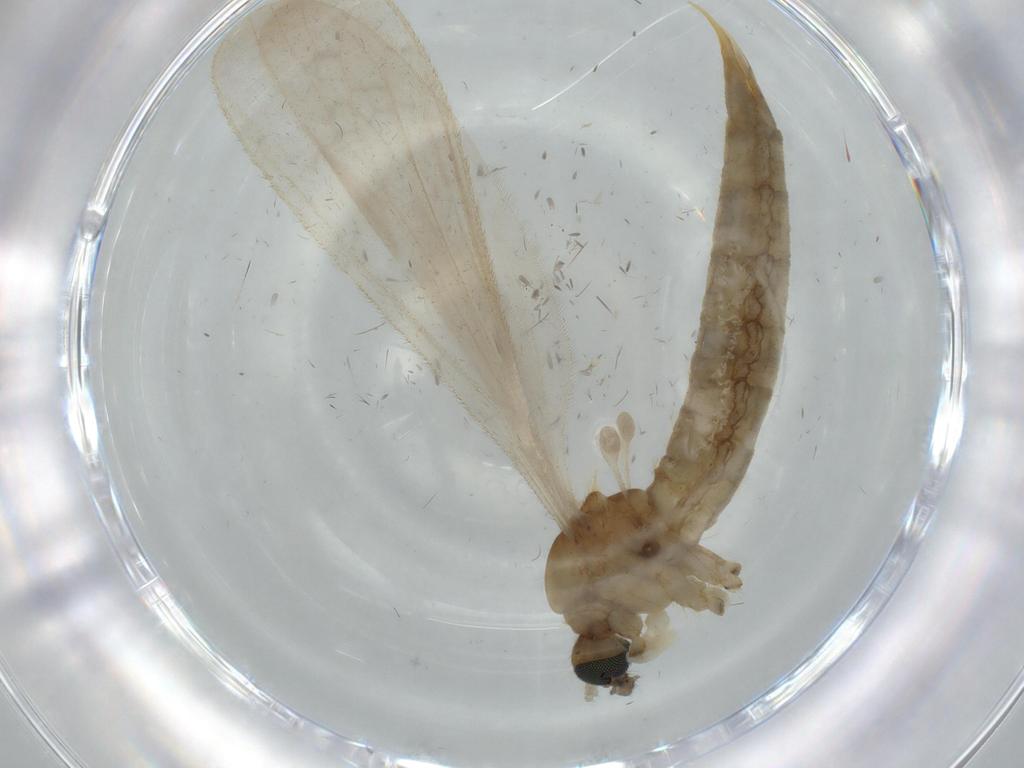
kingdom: Animalia
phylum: Arthropoda
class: Insecta
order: Diptera
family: Limoniidae
